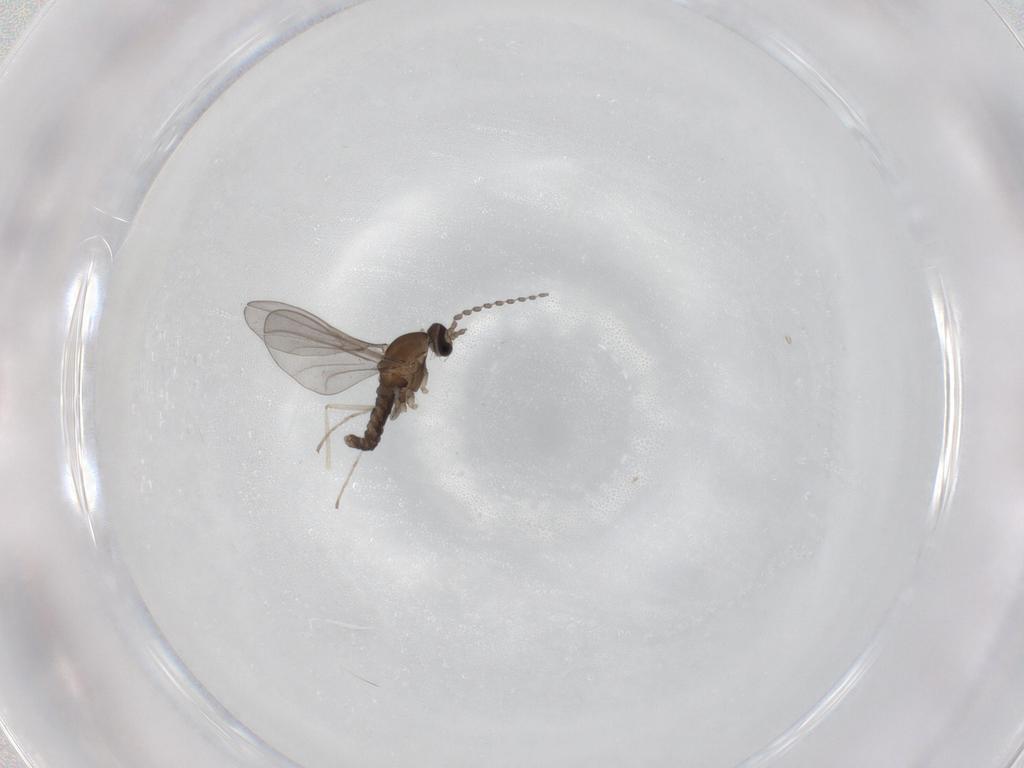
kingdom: Animalia
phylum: Arthropoda
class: Insecta
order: Diptera
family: Cecidomyiidae
